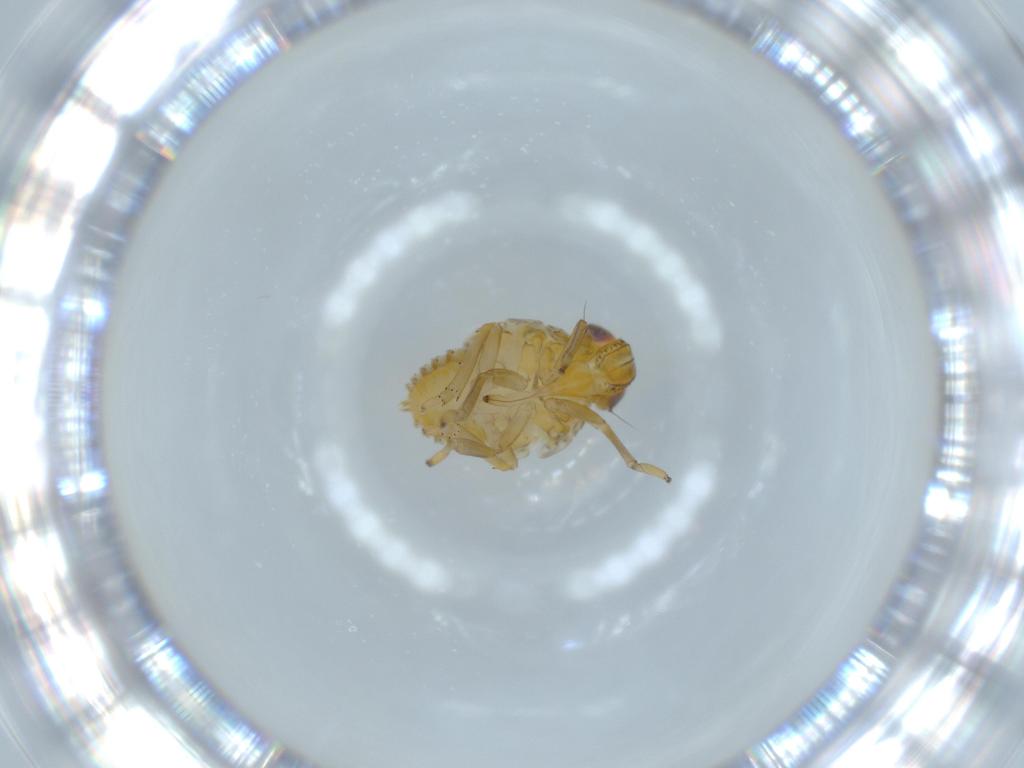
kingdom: Animalia
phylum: Arthropoda
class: Insecta
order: Hemiptera
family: Issidae
